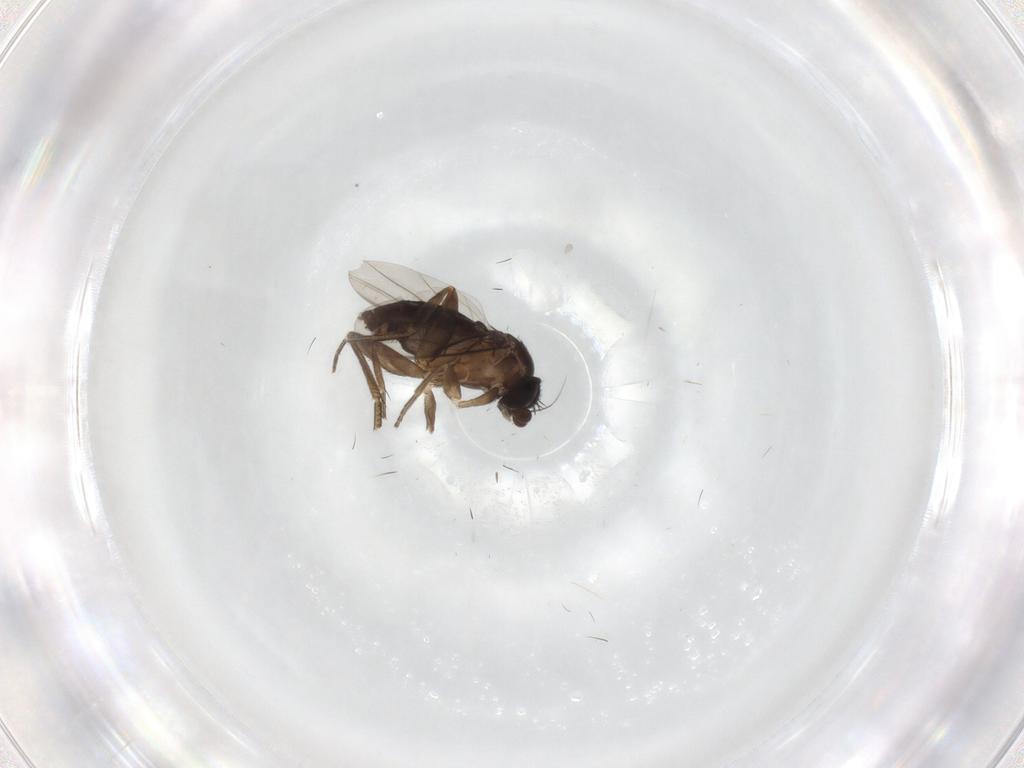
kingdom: Animalia
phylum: Arthropoda
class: Insecta
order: Diptera
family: Phoridae
